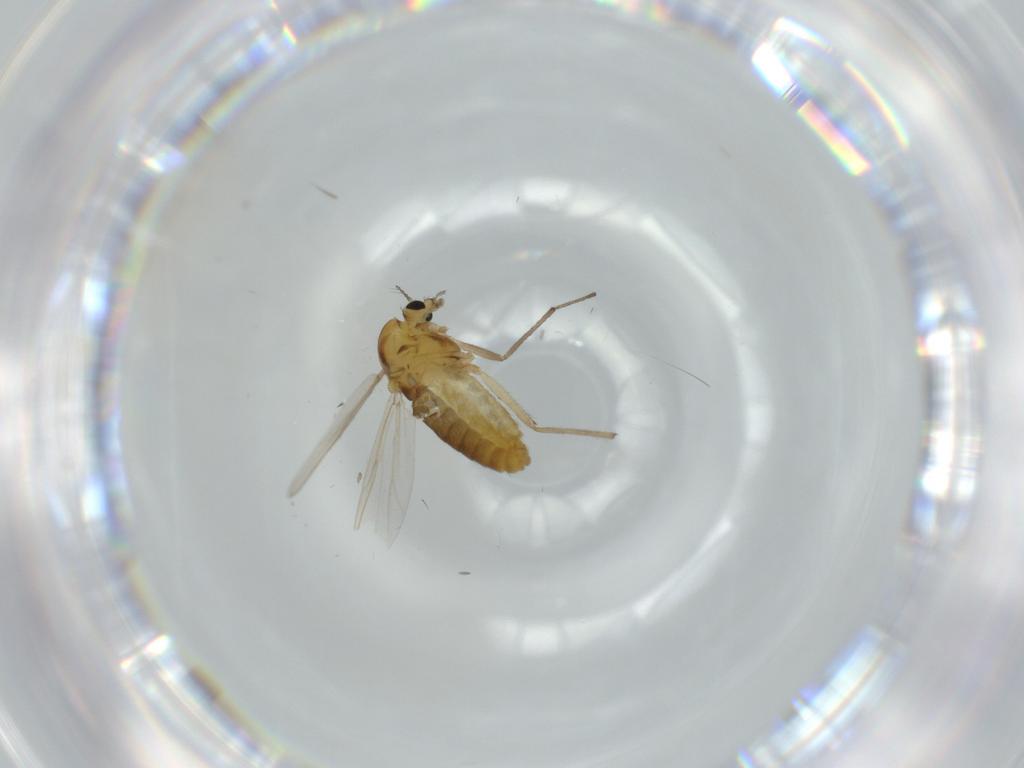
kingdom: Animalia
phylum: Arthropoda
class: Insecta
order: Diptera
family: Chironomidae
